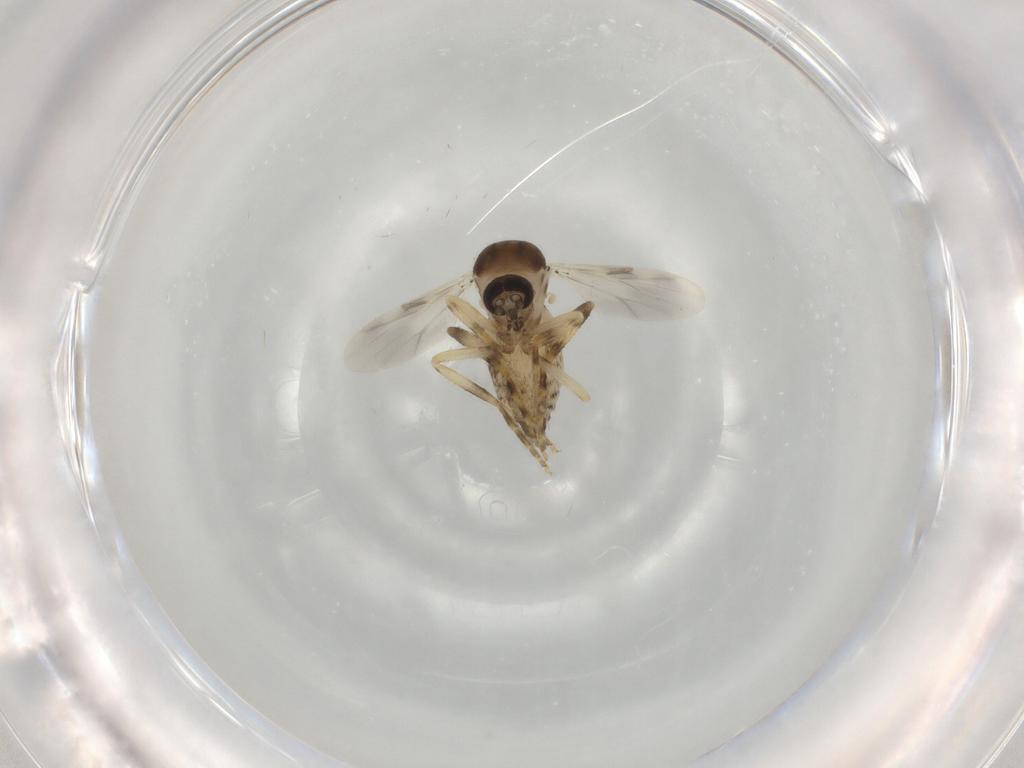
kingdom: Animalia
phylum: Arthropoda
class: Insecta
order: Diptera
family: Ceratopogonidae
